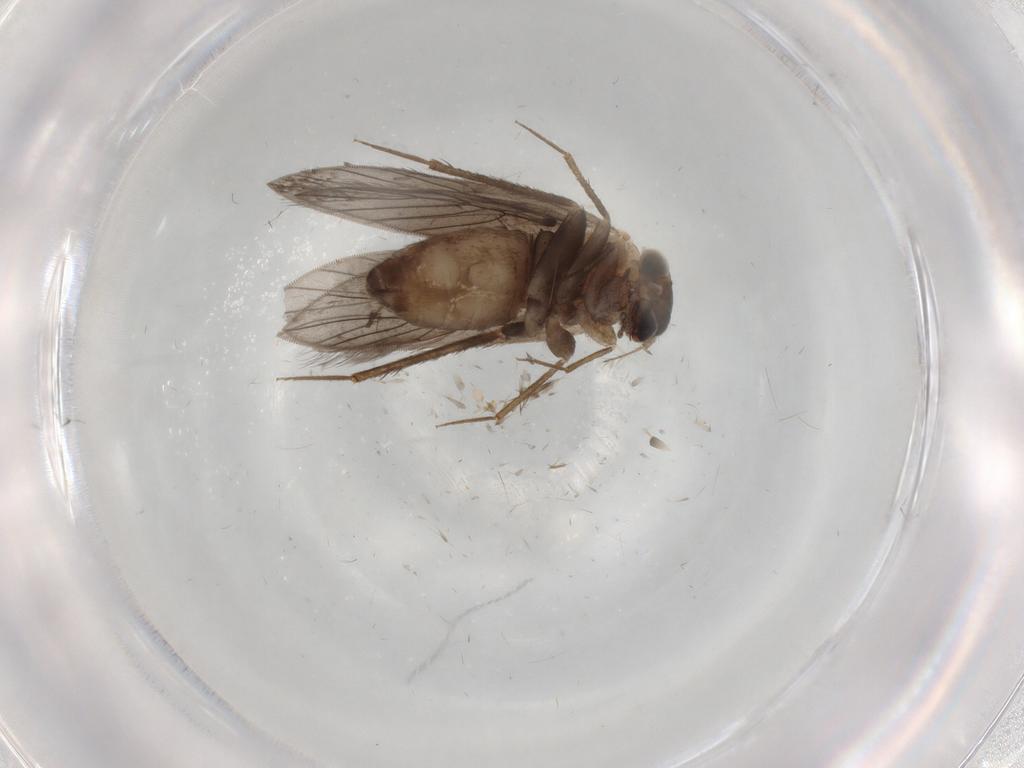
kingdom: Animalia
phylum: Arthropoda
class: Insecta
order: Psocodea
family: Lepidopsocidae
